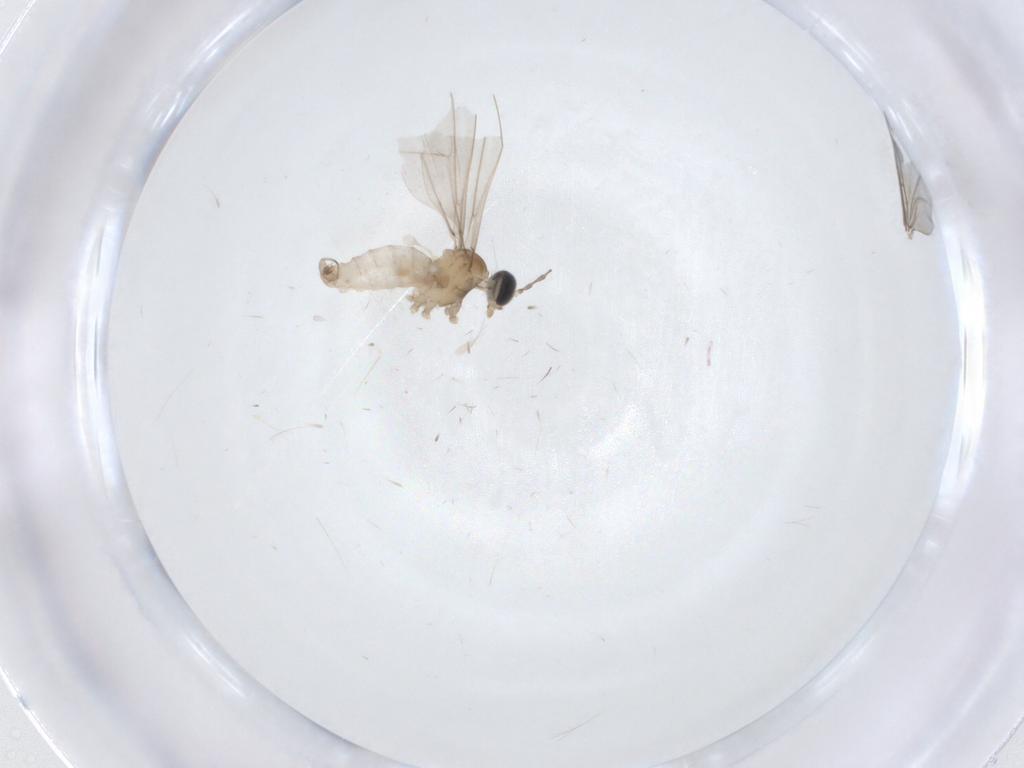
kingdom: Animalia
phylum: Arthropoda
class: Insecta
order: Diptera
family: Cecidomyiidae
